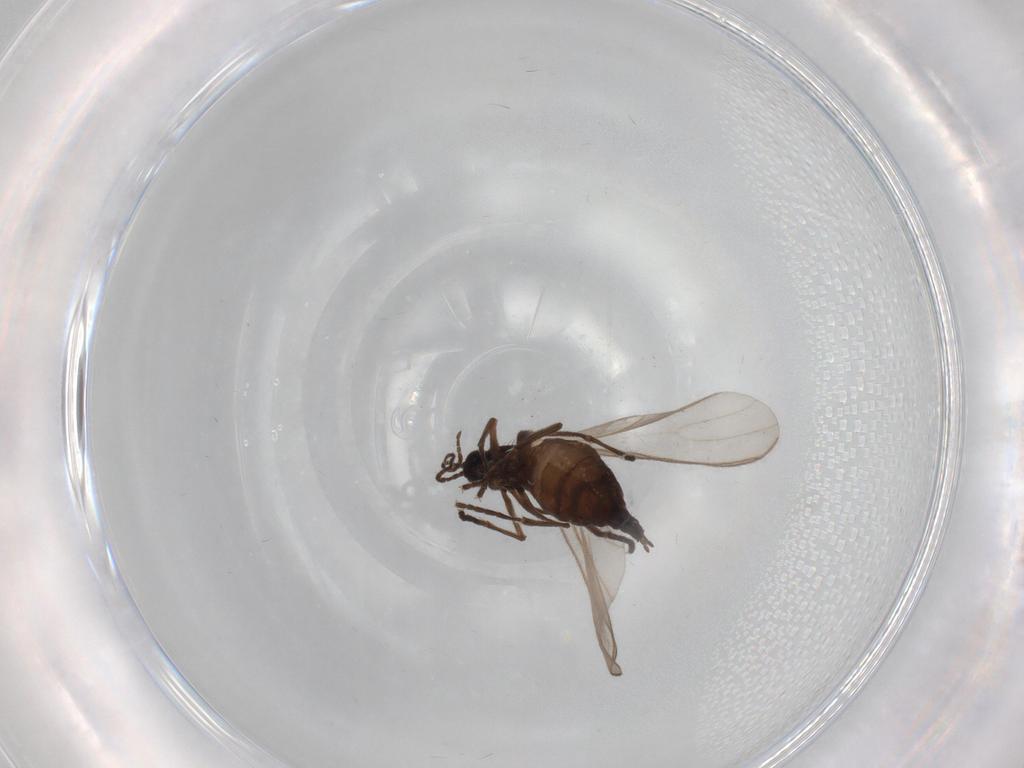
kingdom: Animalia
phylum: Arthropoda
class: Insecta
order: Diptera
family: Sciaridae
